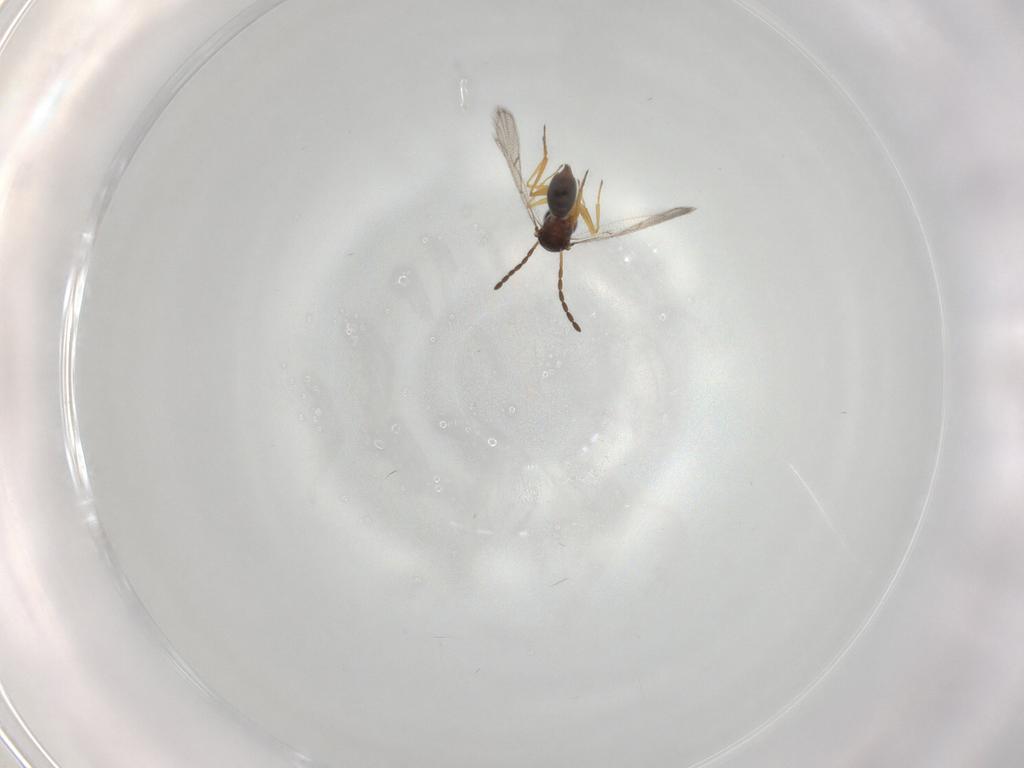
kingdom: Animalia
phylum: Arthropoda
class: Insecta
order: Hymenoptera
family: Figitidae
